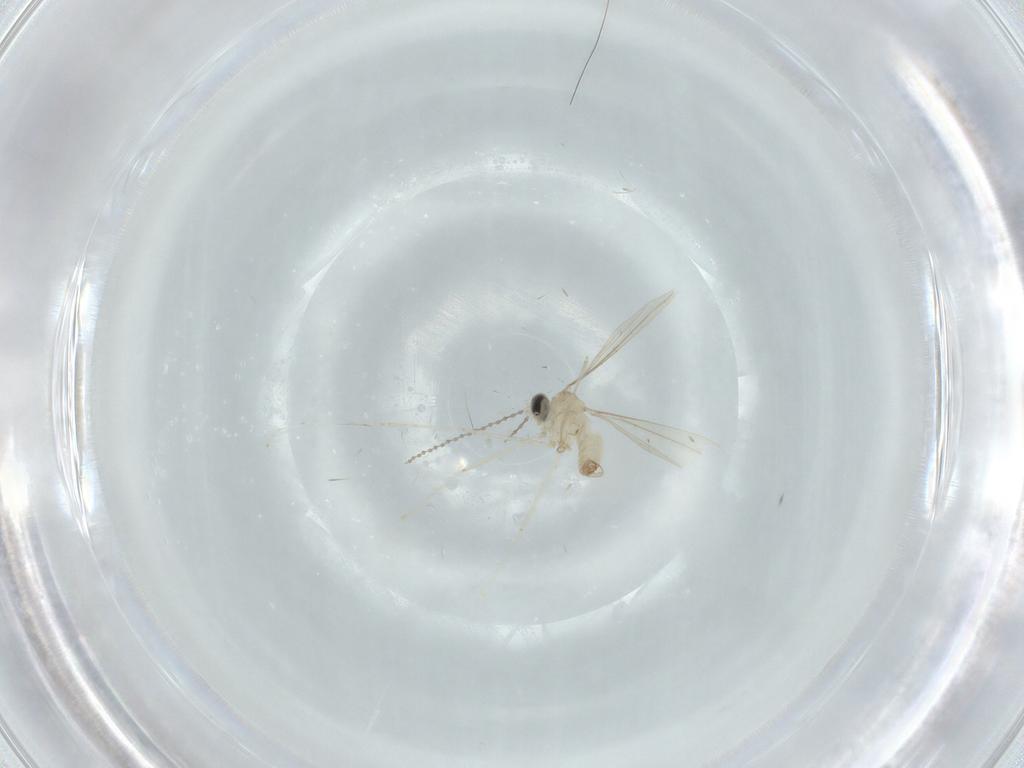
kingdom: Animalia
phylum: Arthropoda
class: Insecta
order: Diptera
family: Cecidomyiidae
